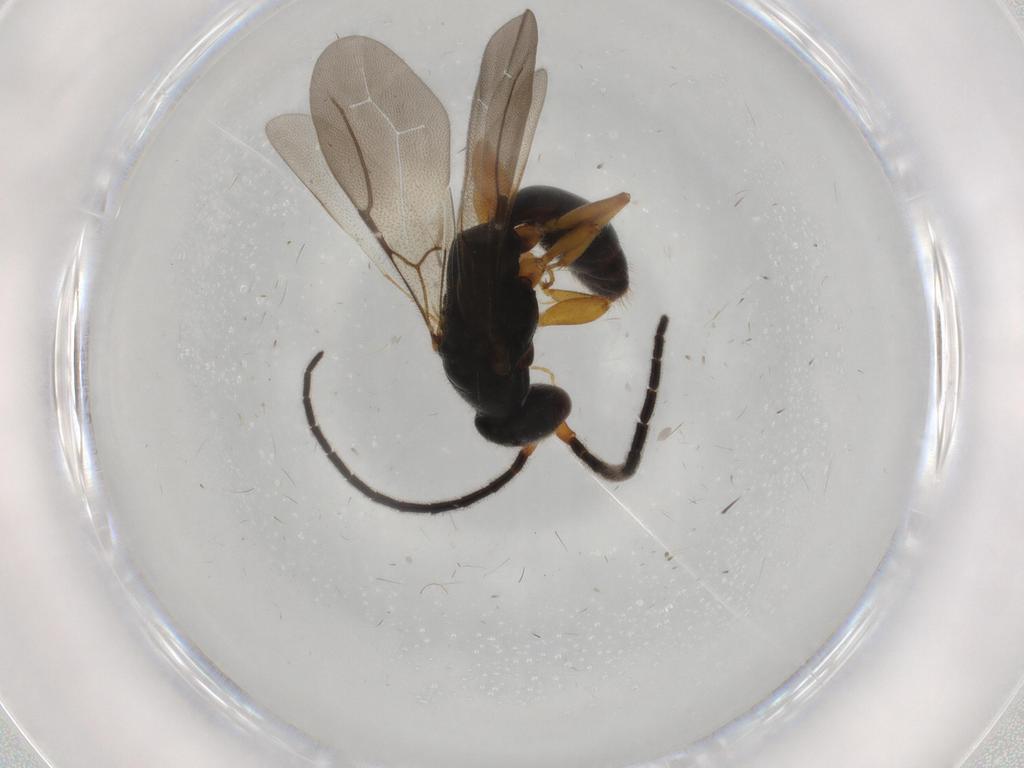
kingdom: Animalia
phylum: Arthropoda
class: Insecta
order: Hymenoptera
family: Bethylidae
